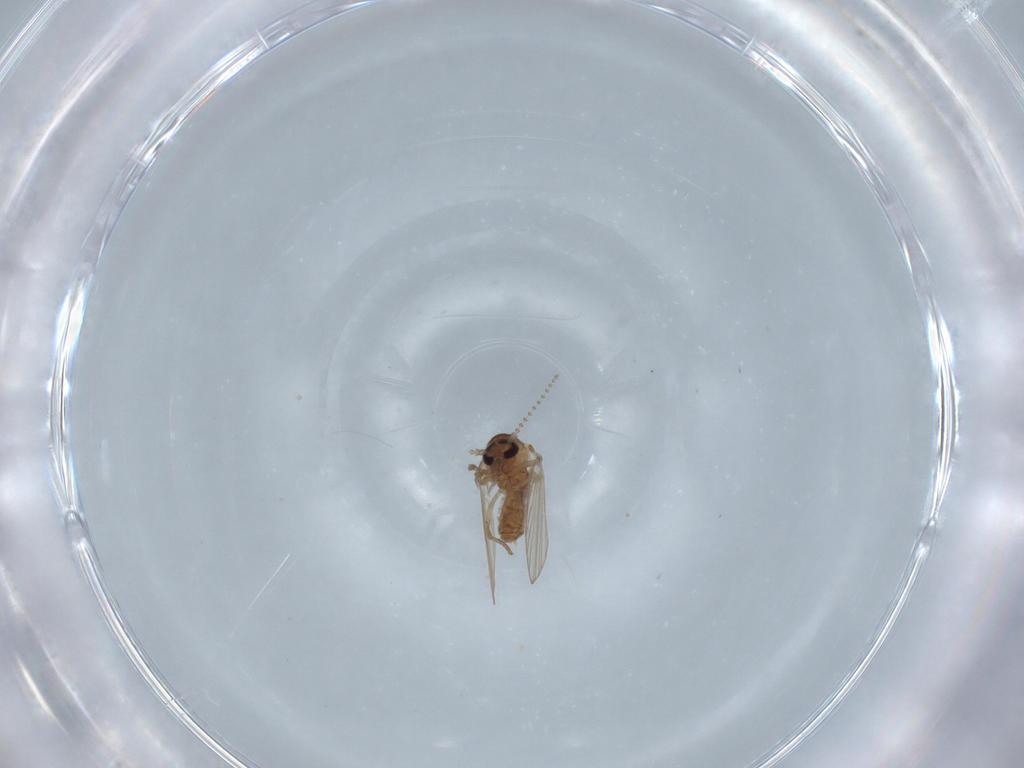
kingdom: Animalia
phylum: Arthropoda
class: Insecta
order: Diptera
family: Psychodidae
